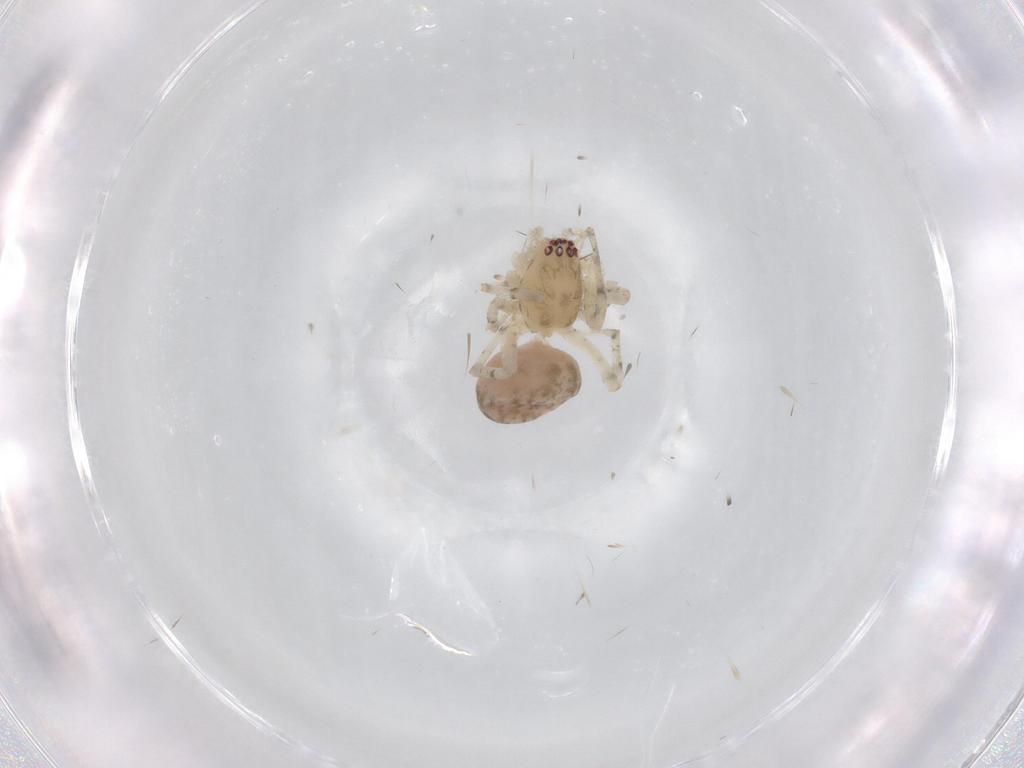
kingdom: Animalia
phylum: Arthropoda
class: Arachnida
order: Araneae
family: Anyphaenidae
